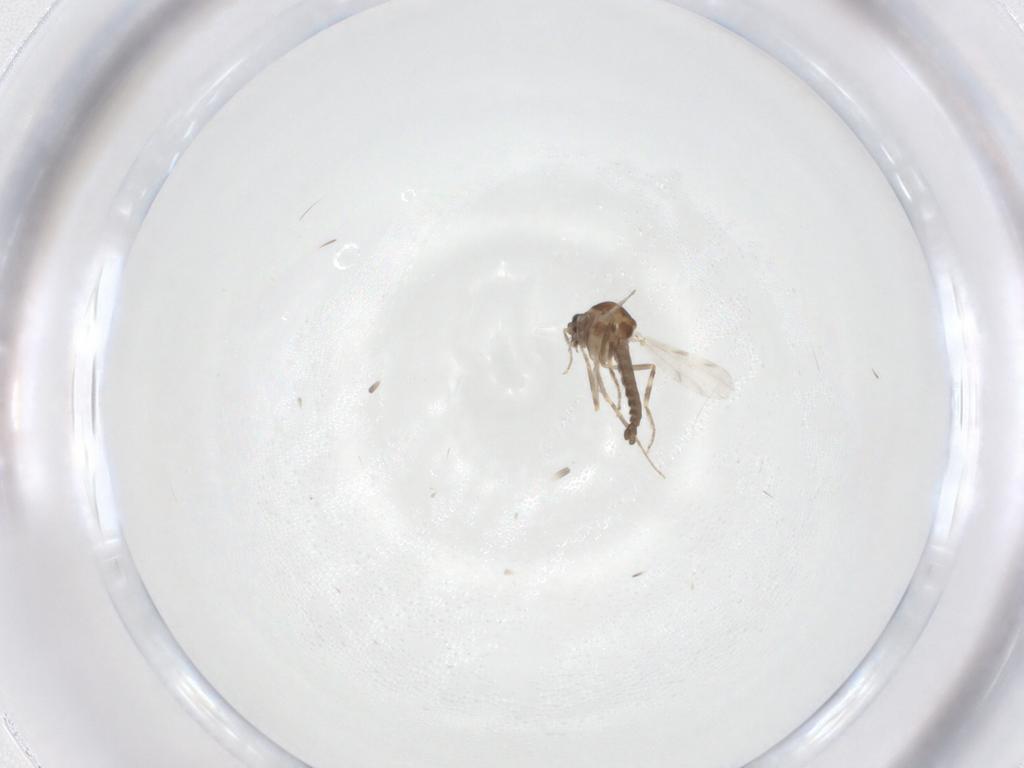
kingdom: Animalia
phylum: Arthropoda
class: Insecta
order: Diptera
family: Ceratopogonidae
